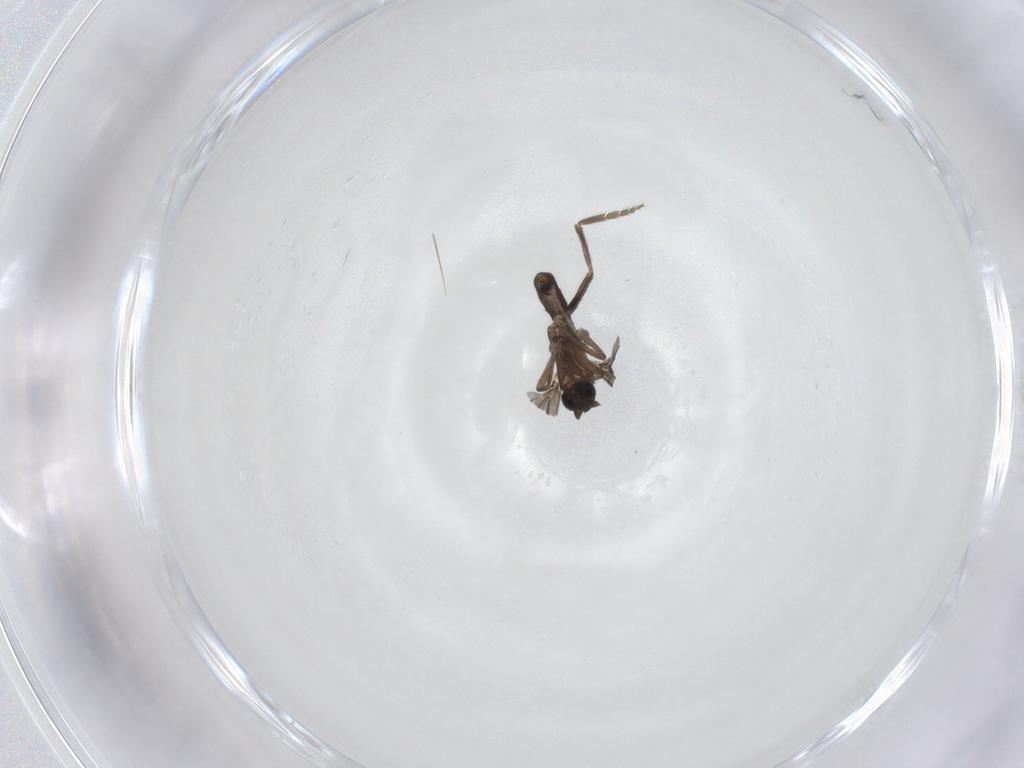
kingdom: Animalia
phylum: Arthropoda
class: Insecta
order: Diptera
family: Phoridae
